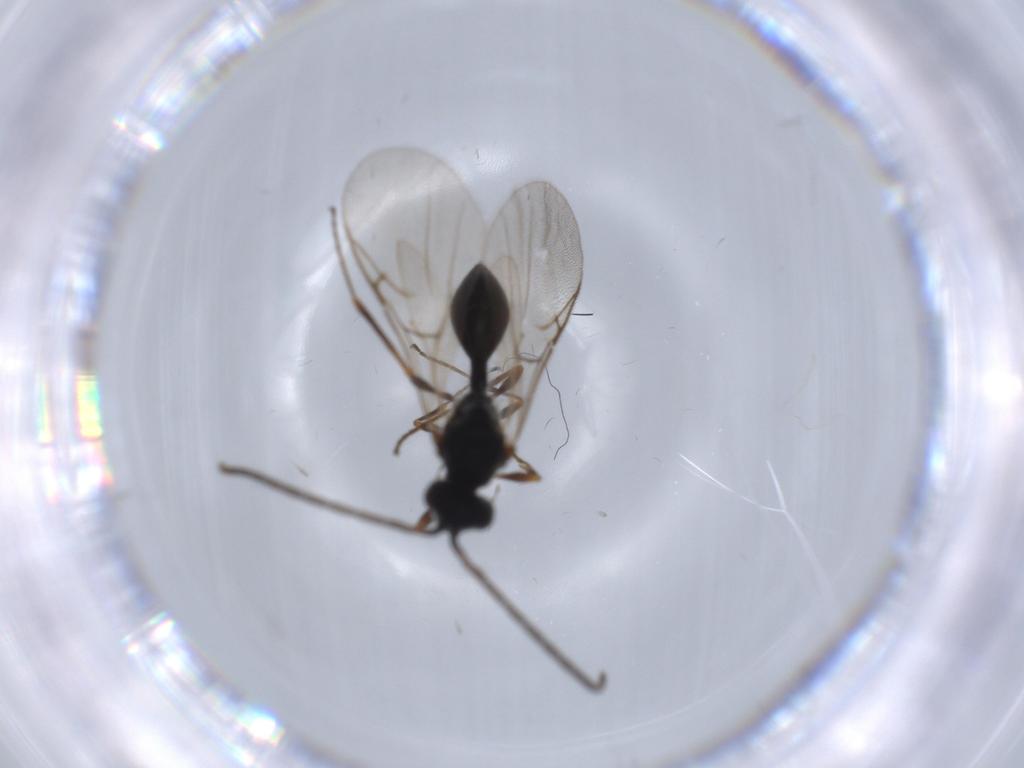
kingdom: Animalia
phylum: Arthropoda
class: Insecta
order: Hymenoptera
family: Diapriidae
